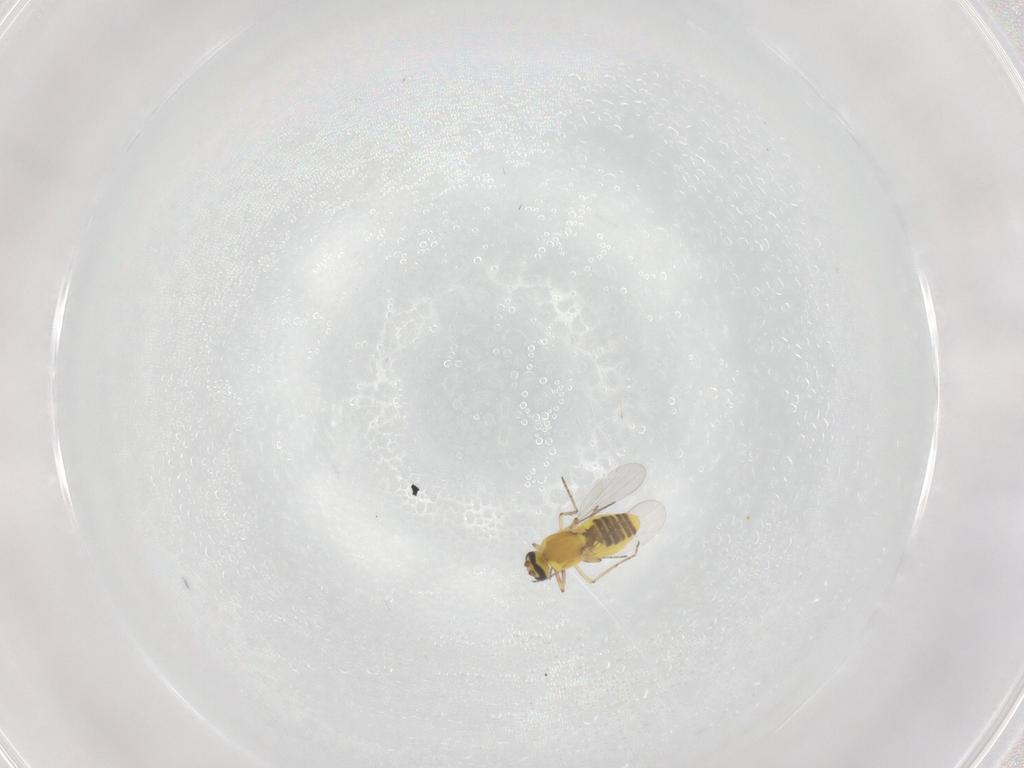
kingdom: Animalia
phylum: Arthropoda
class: Insecta
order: Diptera
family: Ceratopogonidae
